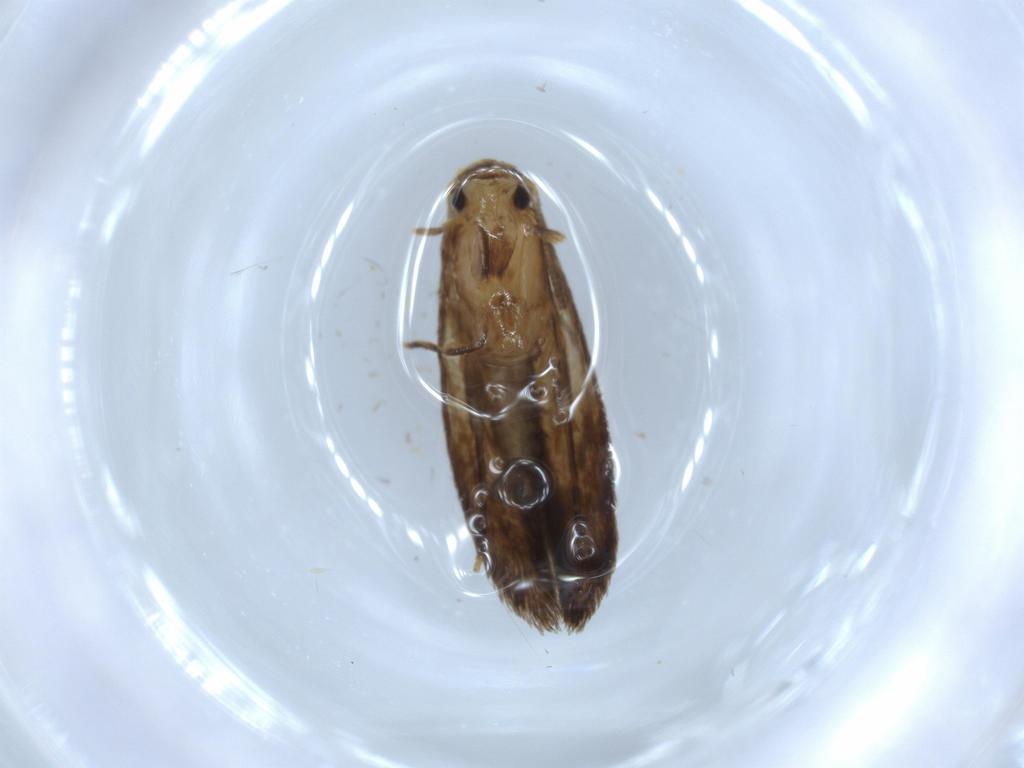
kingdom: Animalia
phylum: Arthropoda
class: Insecta
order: Lepidoptera
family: Tineidae
